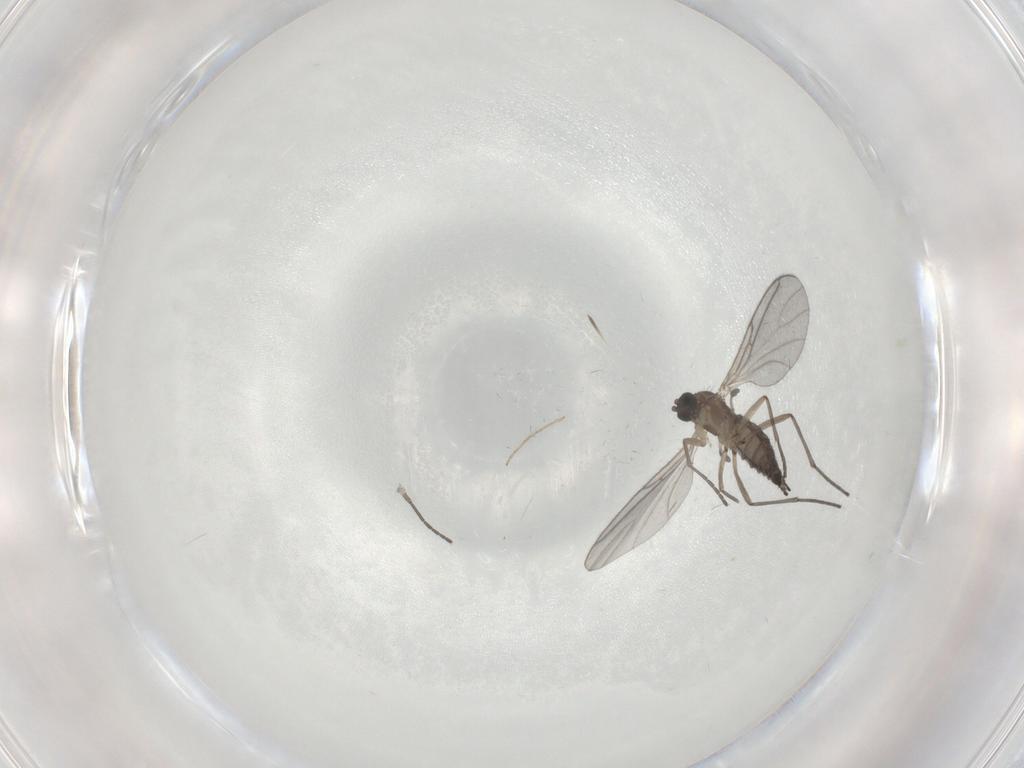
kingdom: Animalia
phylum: Arthropoda
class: Insecta
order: Diptera
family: Sciaridae
